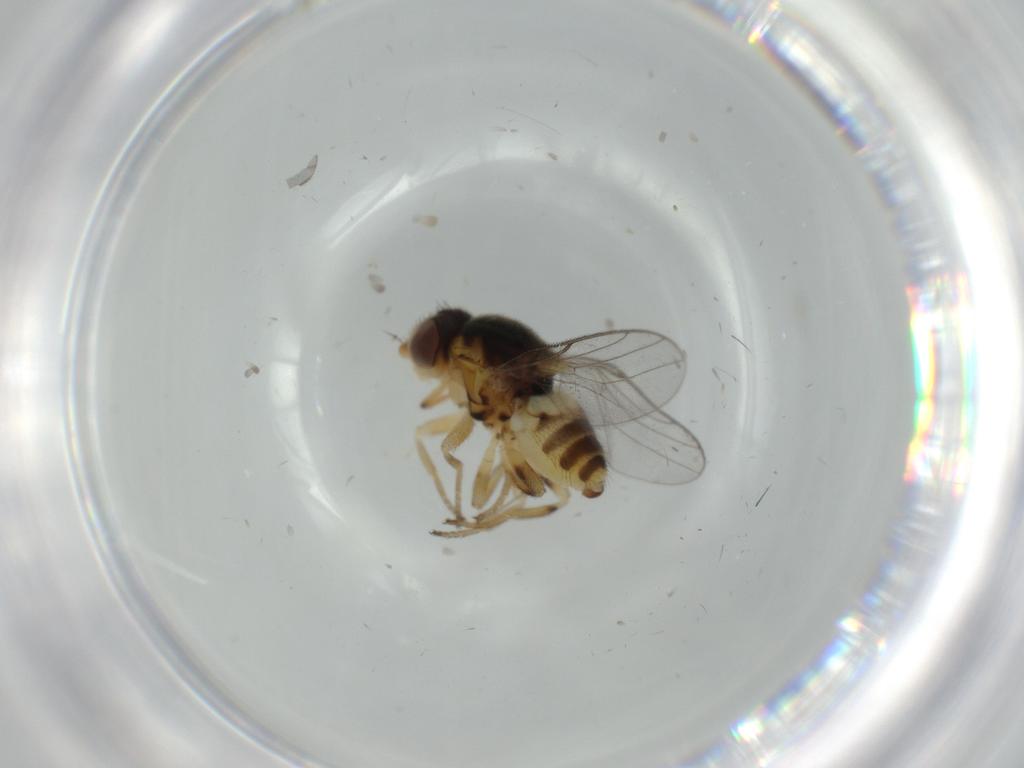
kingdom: Animalia
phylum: Arthropoda
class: Insecta
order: Diptera
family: Chloropidae
